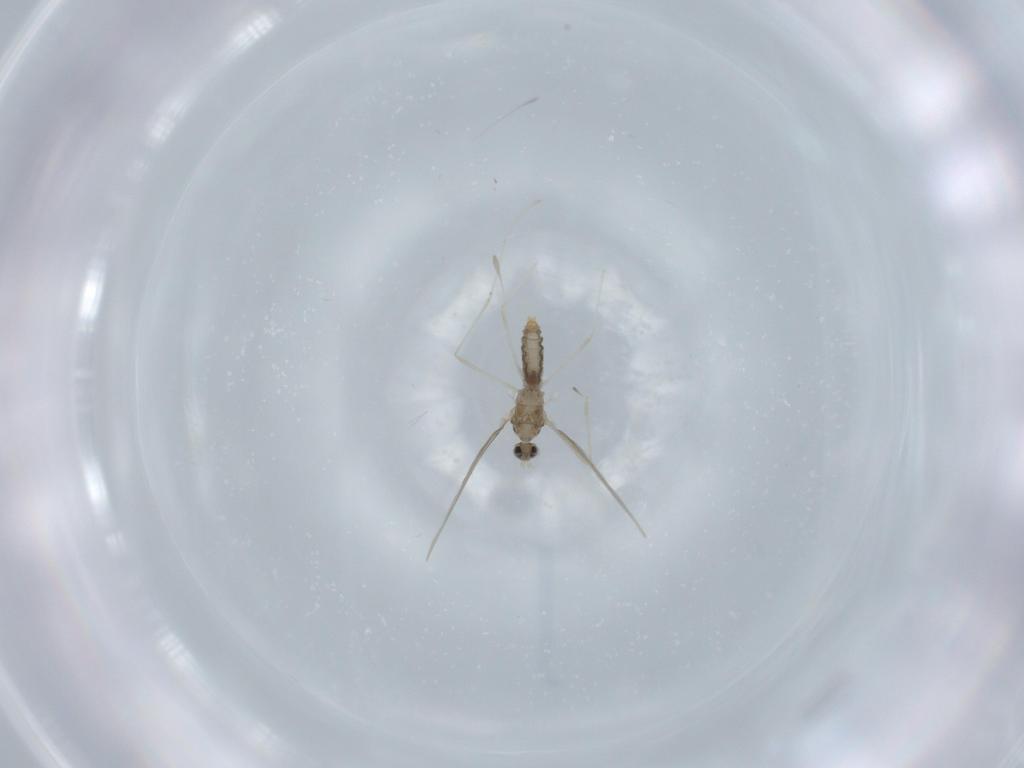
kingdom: Animalia
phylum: Arthropoda
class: Insecta
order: Diptera
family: Cecidomyiidae
